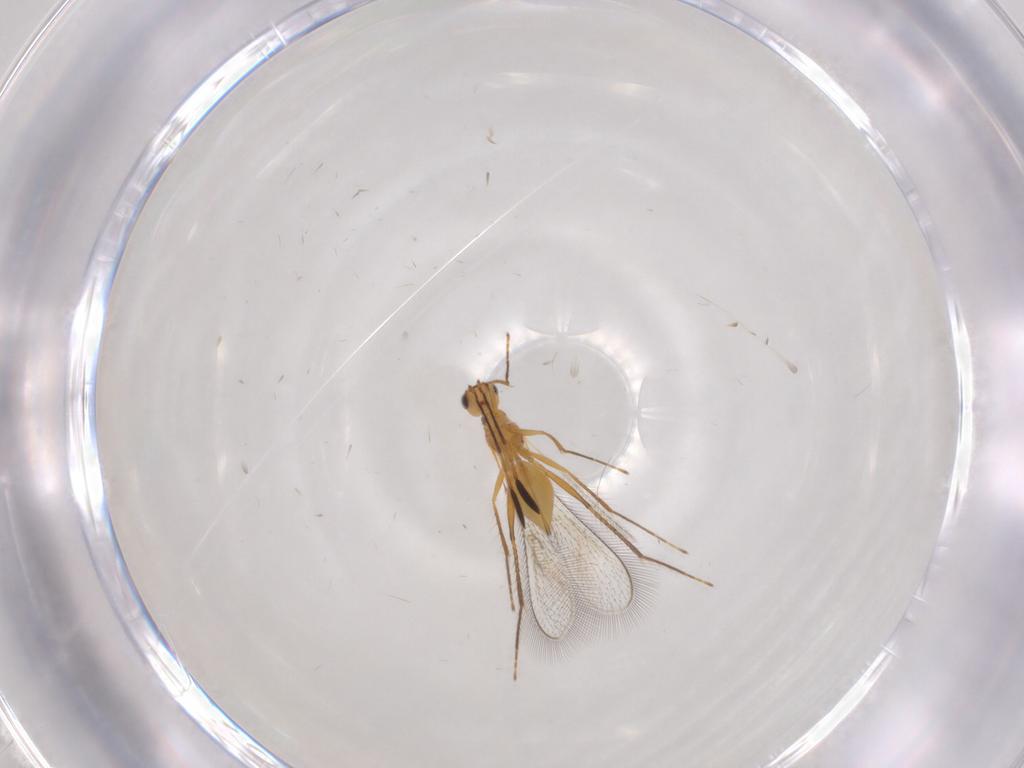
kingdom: Animalia
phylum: Arthropoda
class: Insecta
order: Hymenoptera
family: Mymaridae
